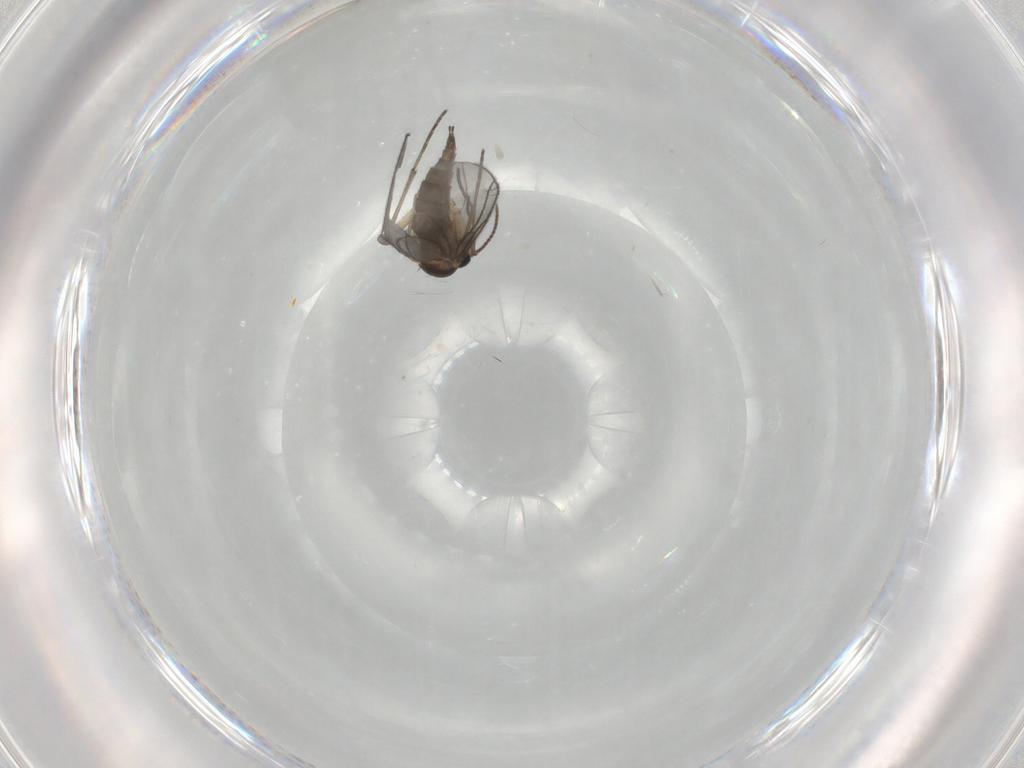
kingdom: Animalia
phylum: Arthropoda
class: Insecta
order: Diptera
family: Sciaridae
